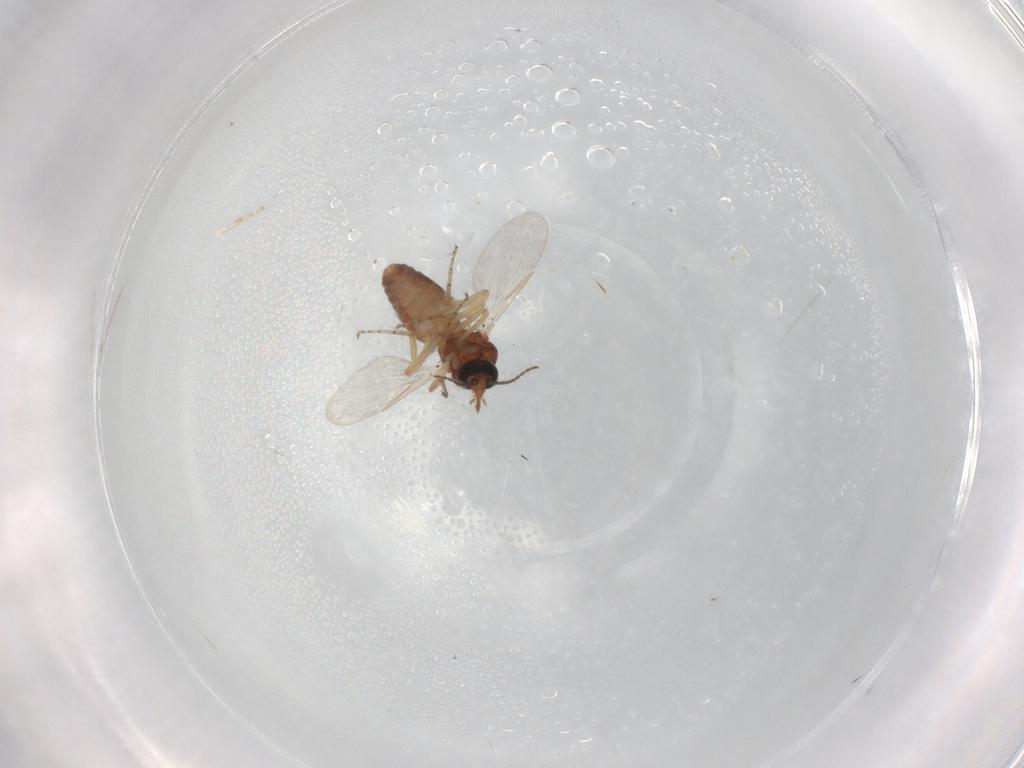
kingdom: Animalia
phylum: Arthropoda
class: Insecta
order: Diptera
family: Ceratopogonidae
